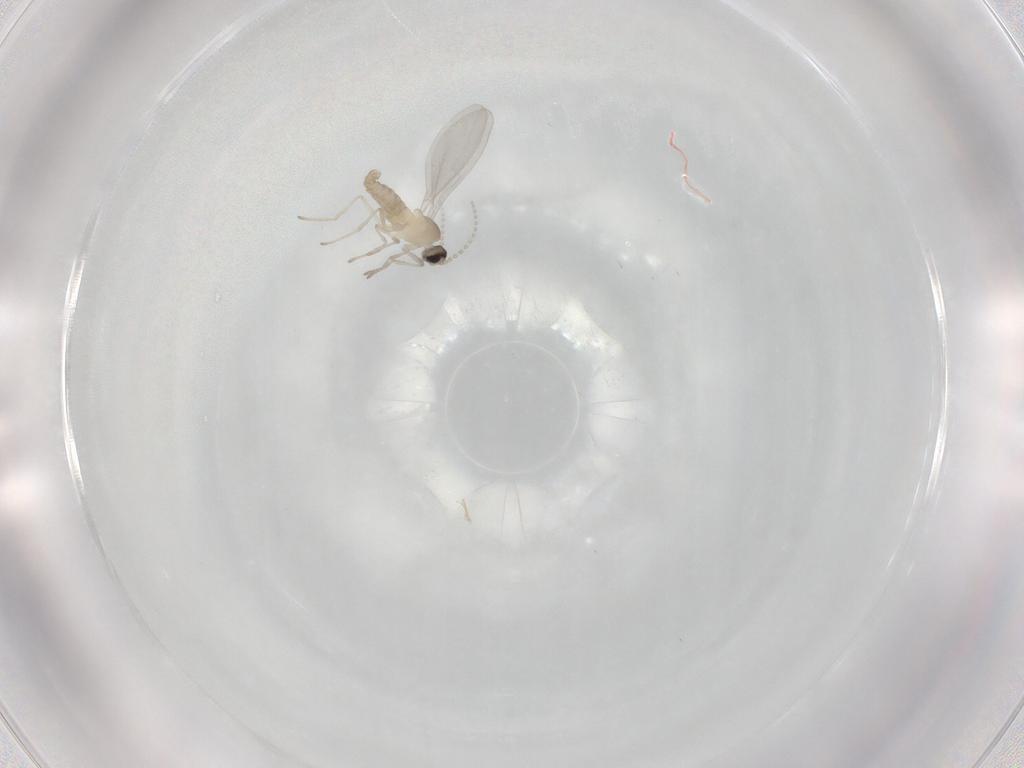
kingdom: Animalia
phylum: Arthropoda
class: Insecta
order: Diptera
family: Cecidomyiidae
